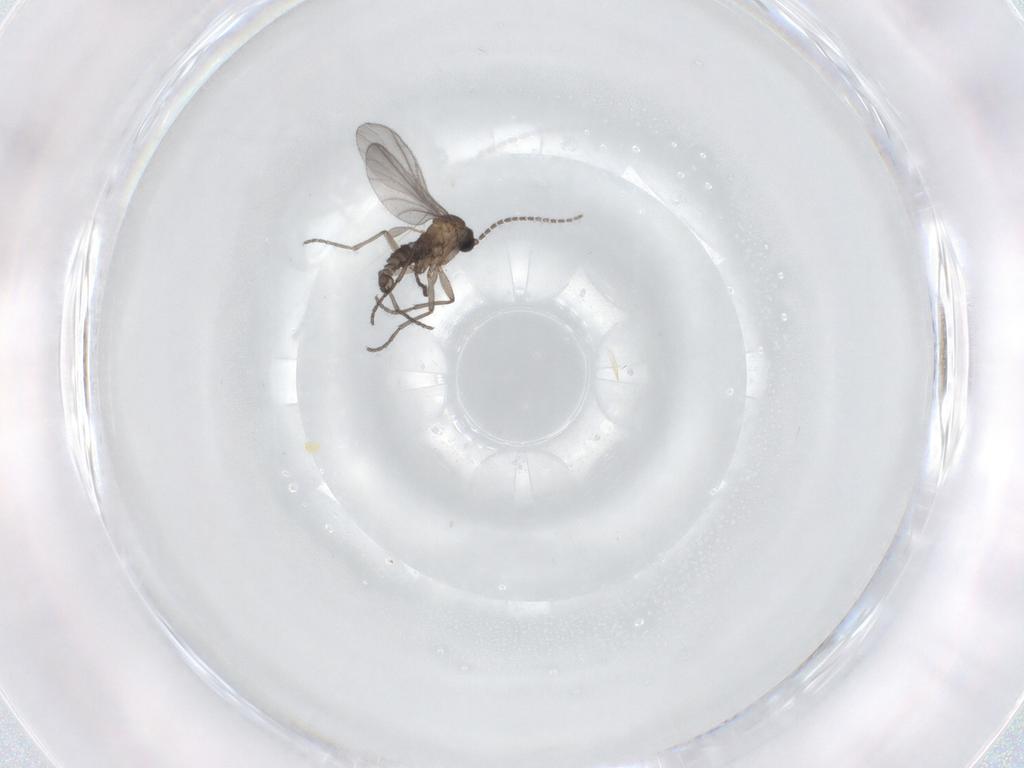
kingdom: Animalia
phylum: Arthropoda
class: Insecta
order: Diptera
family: Sciaridae
